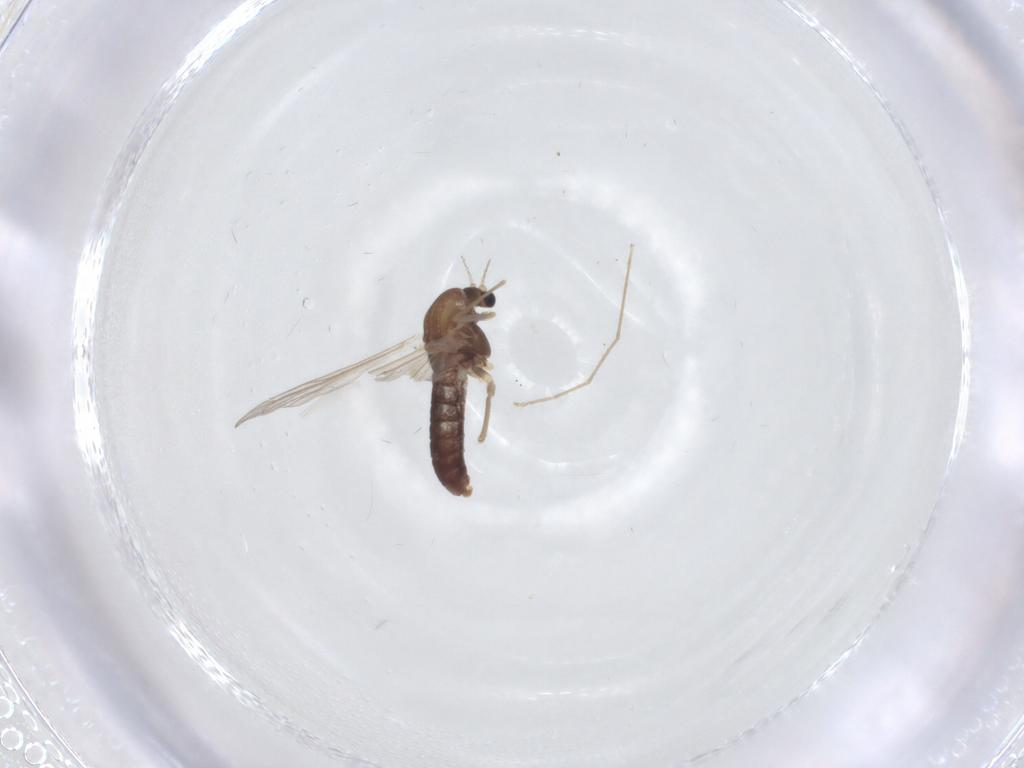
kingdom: Animalia
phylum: Arthropoda
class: Insecta
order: Diptera
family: Chironomidae
